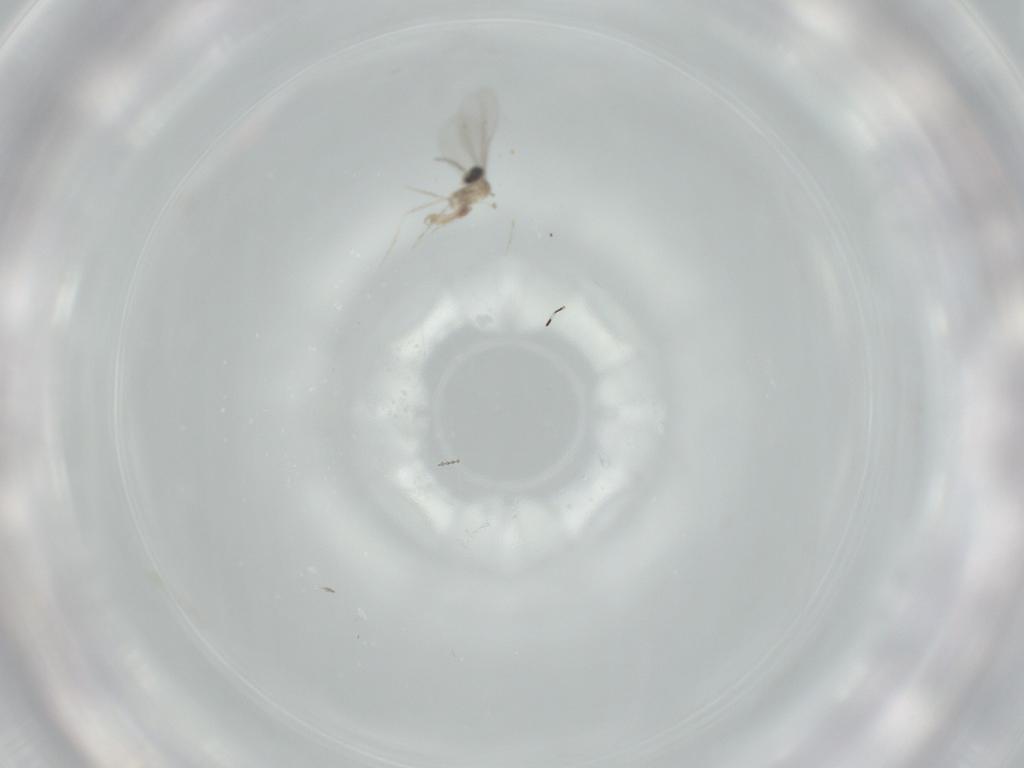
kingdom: Animalia
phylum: Arthropoda
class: Insecta
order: Diptera
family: Cecidomyiidae
